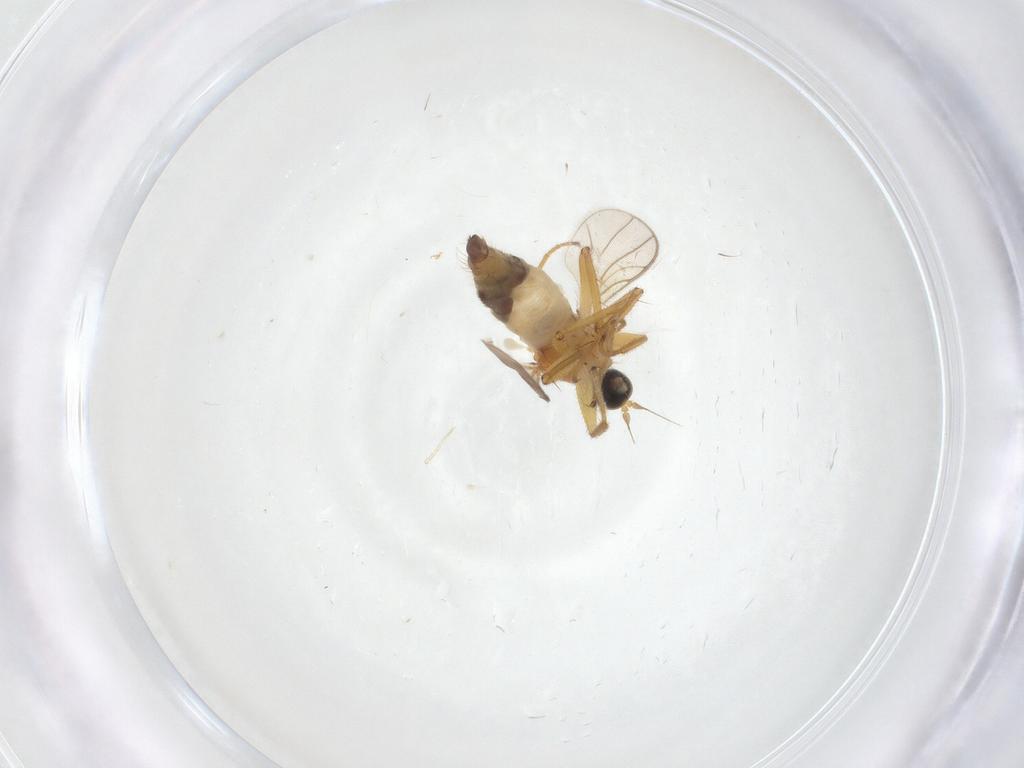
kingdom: Animalia
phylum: Arthropoda
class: Insecta
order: Diptera
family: Hybotidae
